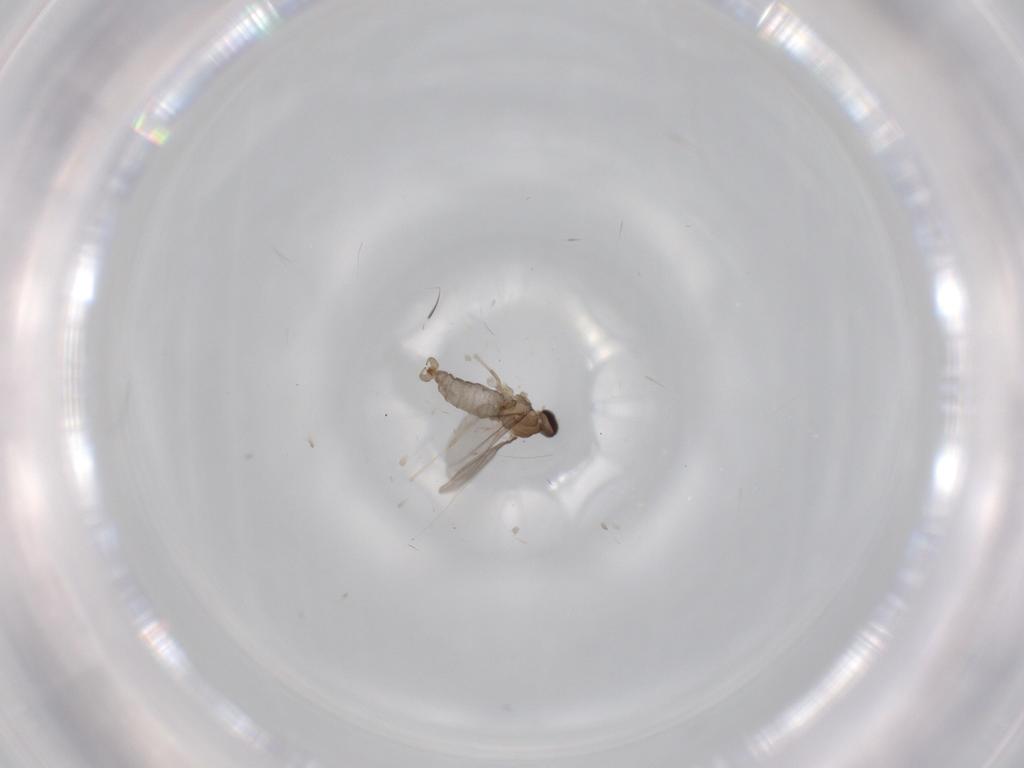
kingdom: Animalia
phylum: Arthropoda
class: Insecta
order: Diptera
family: Cecidomyiidae
